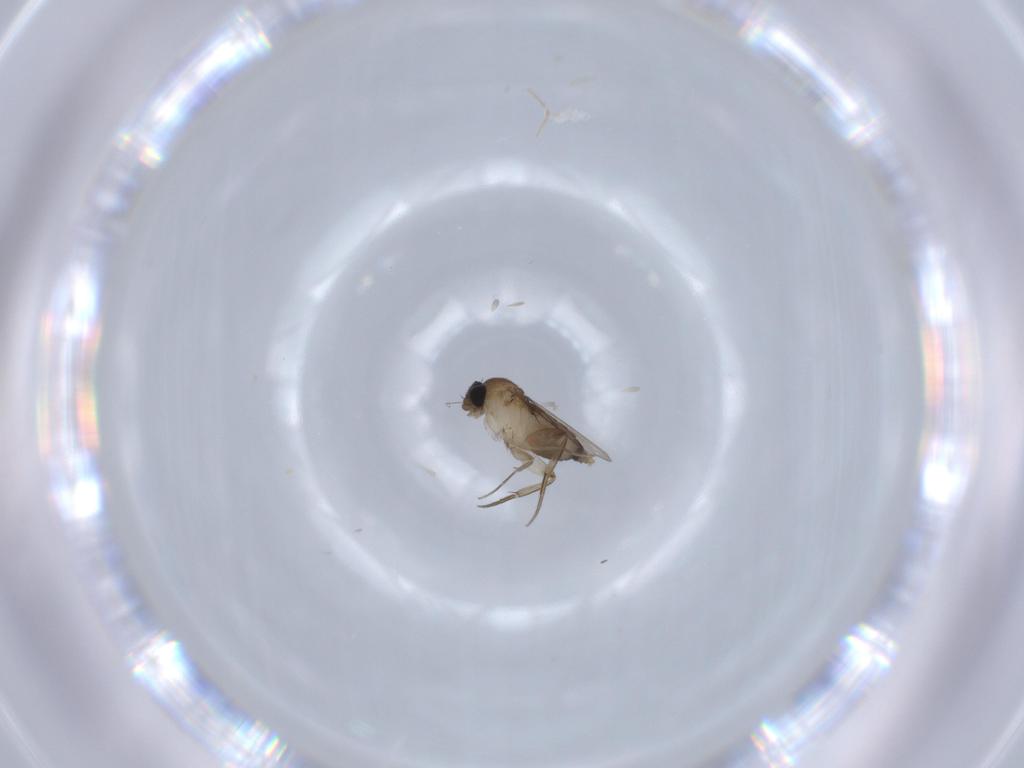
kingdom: Animalia
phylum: Arthropoda
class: Insecta
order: Diptera
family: Phoridae
